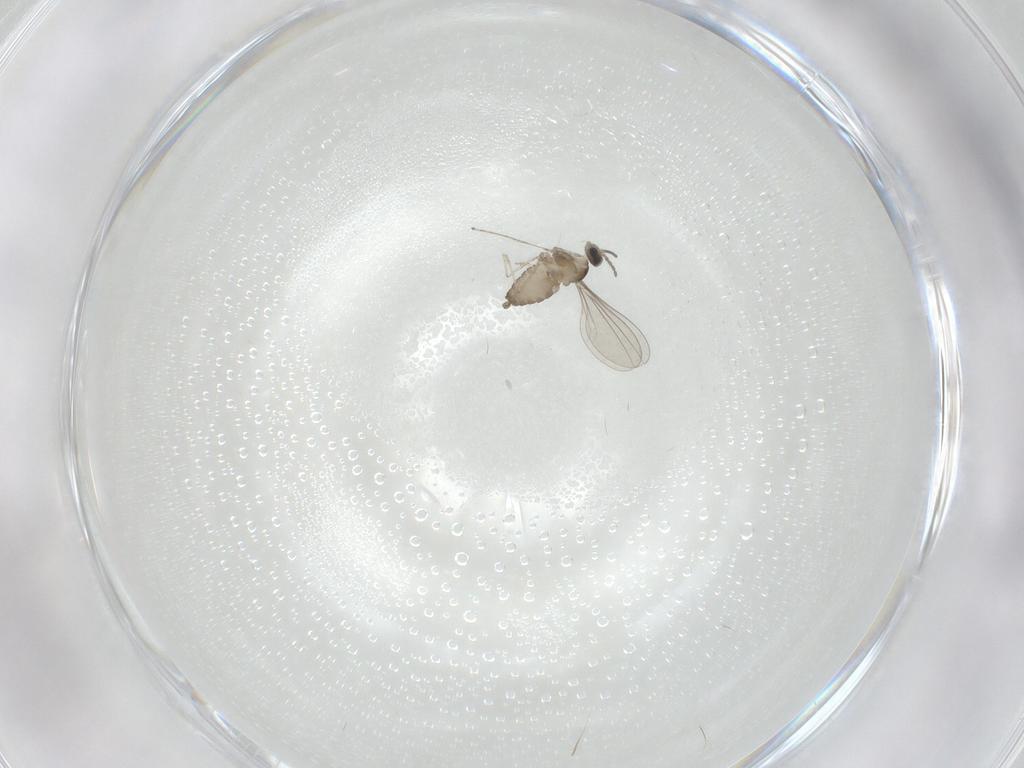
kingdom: Animalia
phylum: Arthropoda
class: Insecta
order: Diptera
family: Cecidomyiidae
